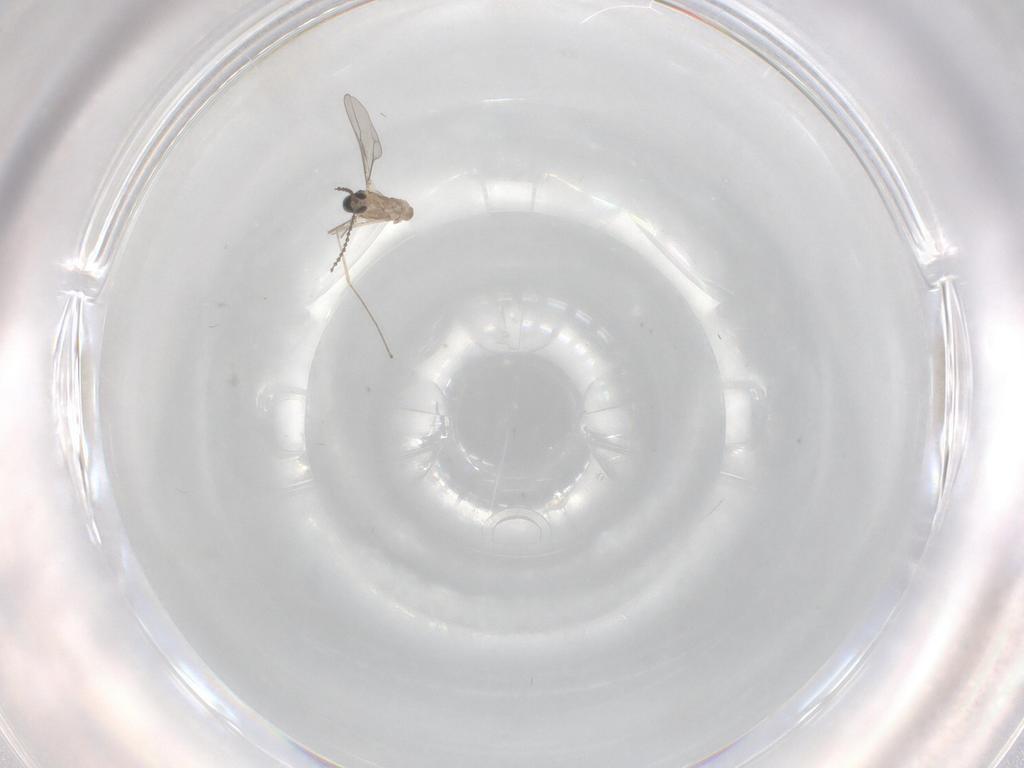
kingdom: Animalia
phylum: Arthropoda
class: Insecta
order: Diptera
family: Cecidomyiidae
